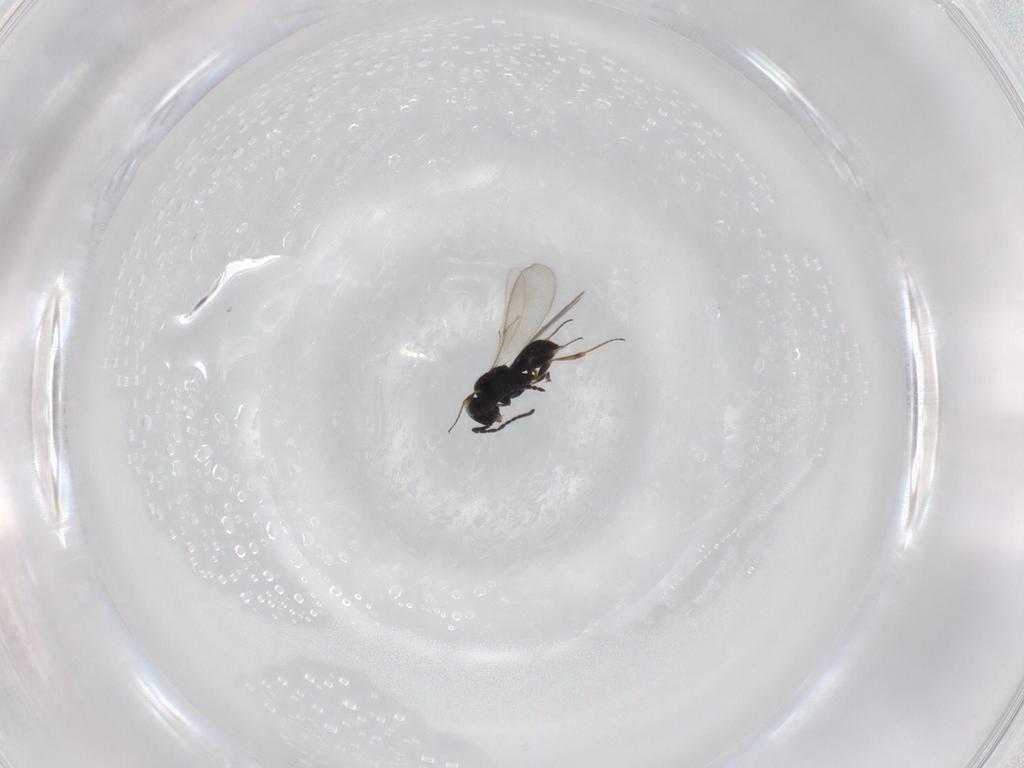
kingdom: Animalia
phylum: Arthropoda
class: Insecta
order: Hymenoptera
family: Scelionidae
